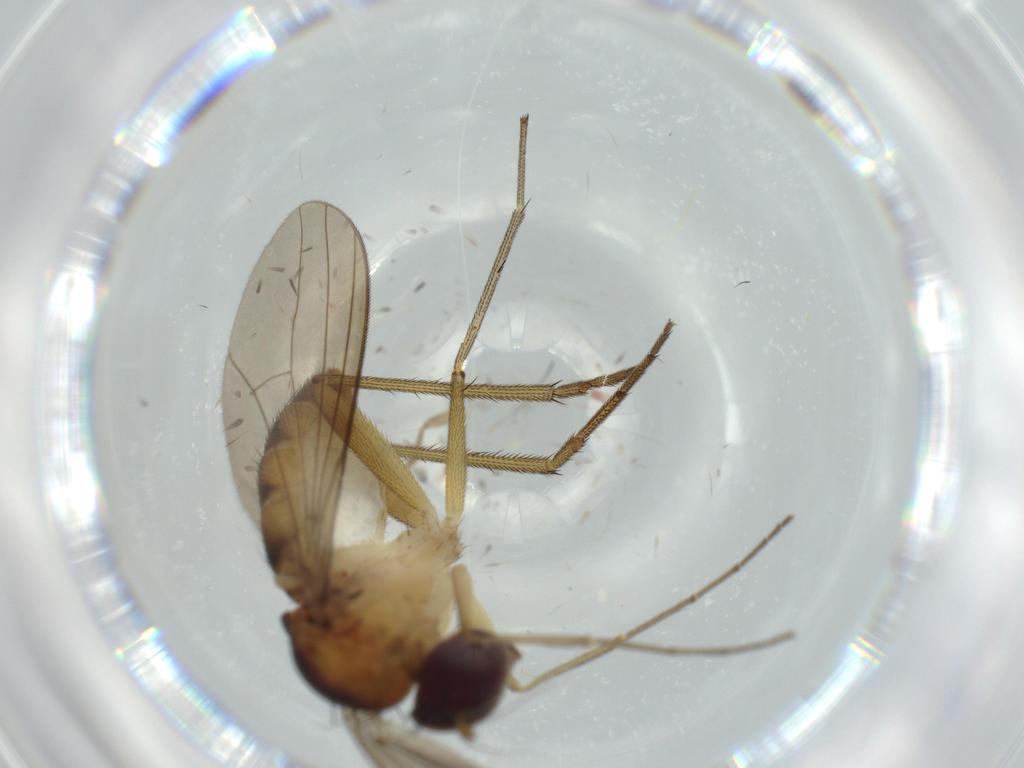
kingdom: Animalia
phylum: Arthropoda
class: Insecta
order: Diptera
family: Dolichopodidae
